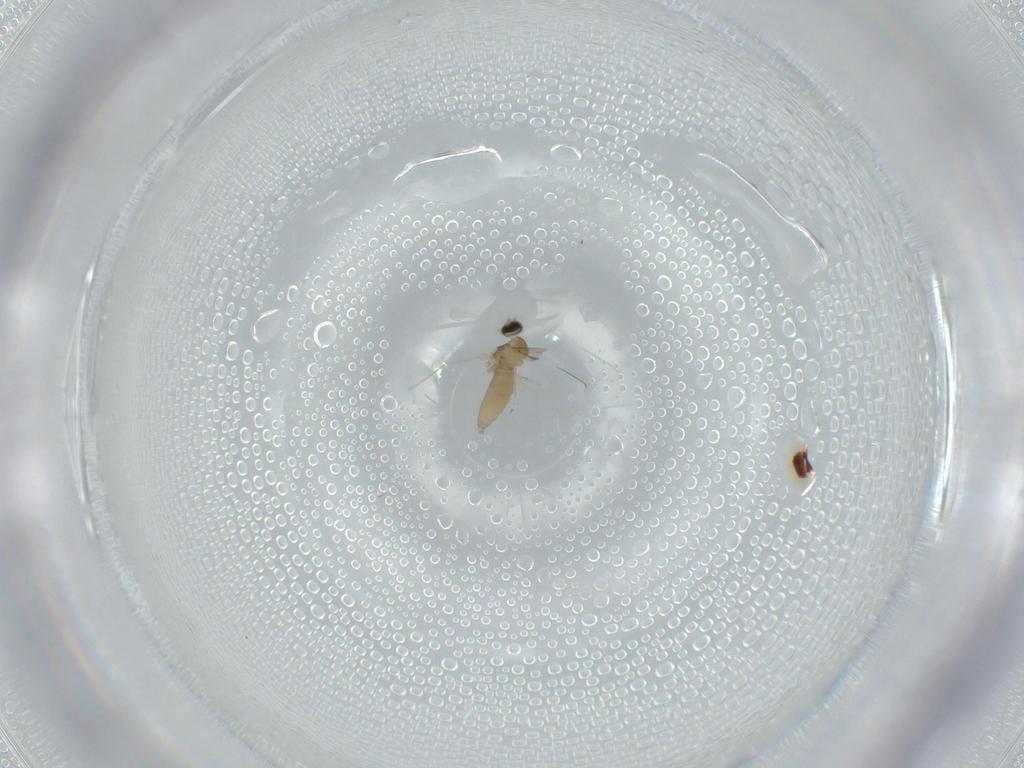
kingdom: Animalia
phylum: Arthropoda
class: Insecta
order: Diptera
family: Cecidomyiidae
